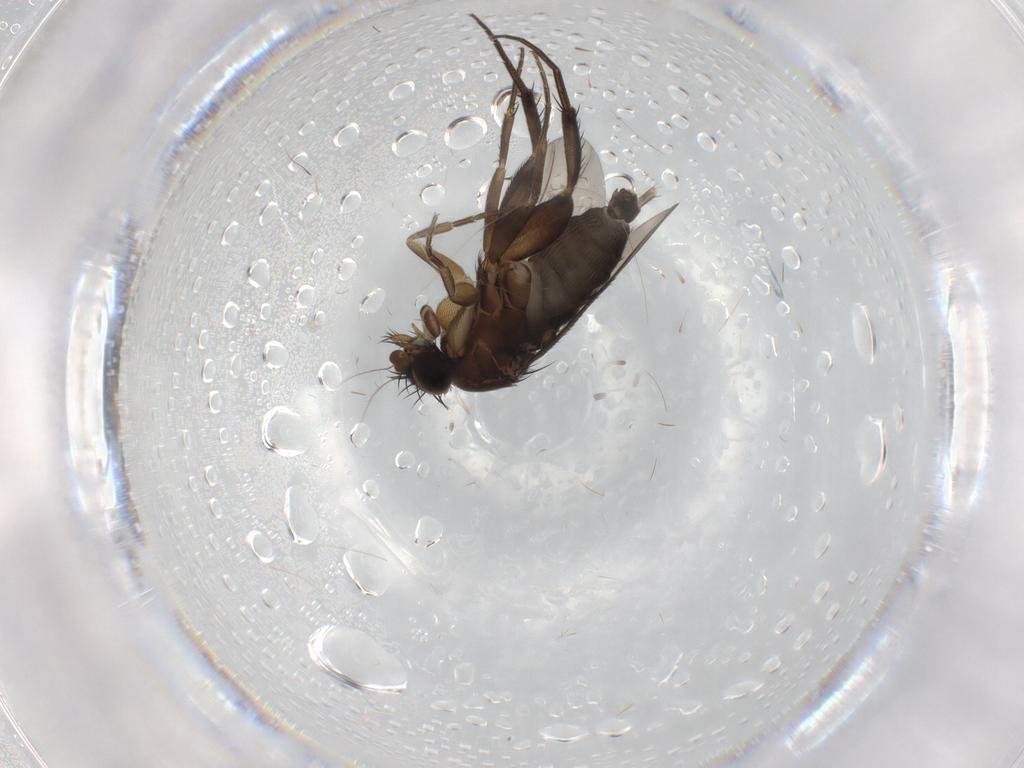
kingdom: Animalia
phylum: Arthropoda
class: Insecta
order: Diptera
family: Phoridae
